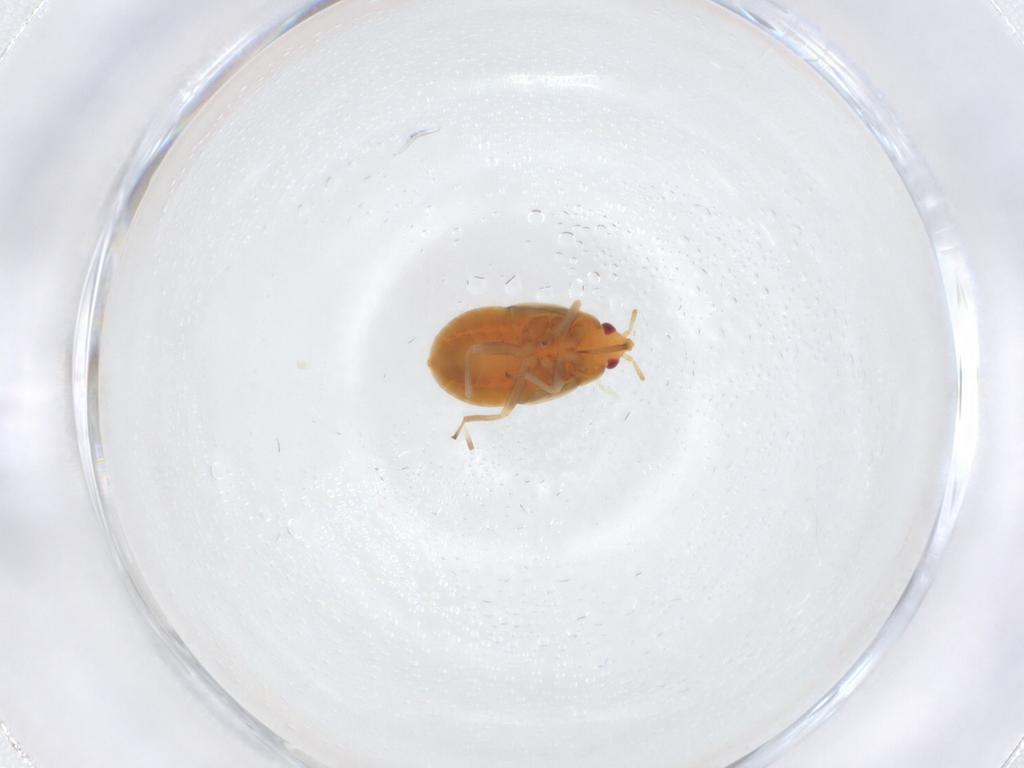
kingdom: Animalia
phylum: Arthropoda
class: Insecta
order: Hemiptera
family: Anthocoridae
